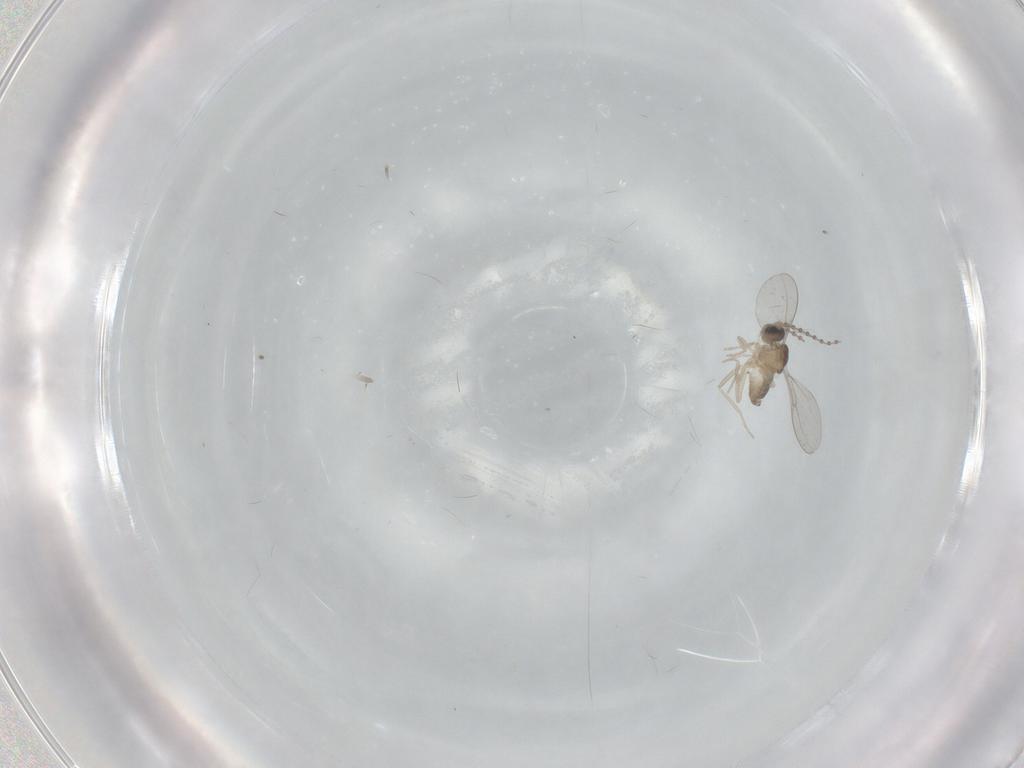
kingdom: Animalia
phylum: Arthropoda
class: Insecta
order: Diptera
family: Cecidomyiidae
